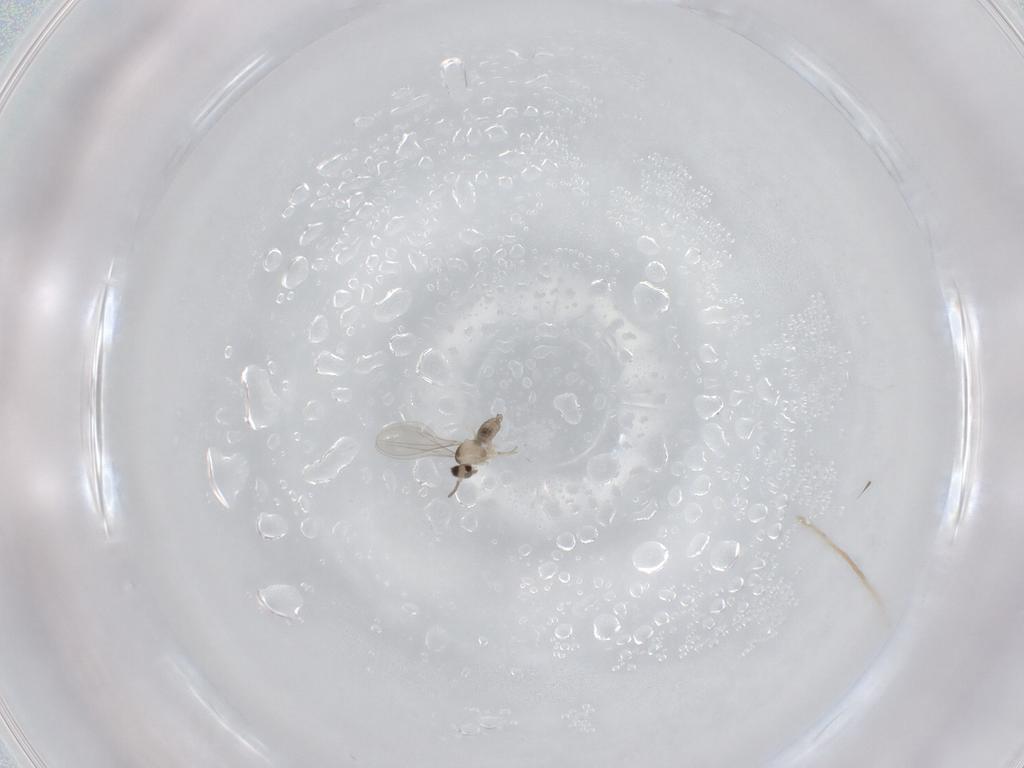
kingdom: Animalia
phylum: Arthropoda
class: Insecta
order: Diptera
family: Cecidomyiidae
